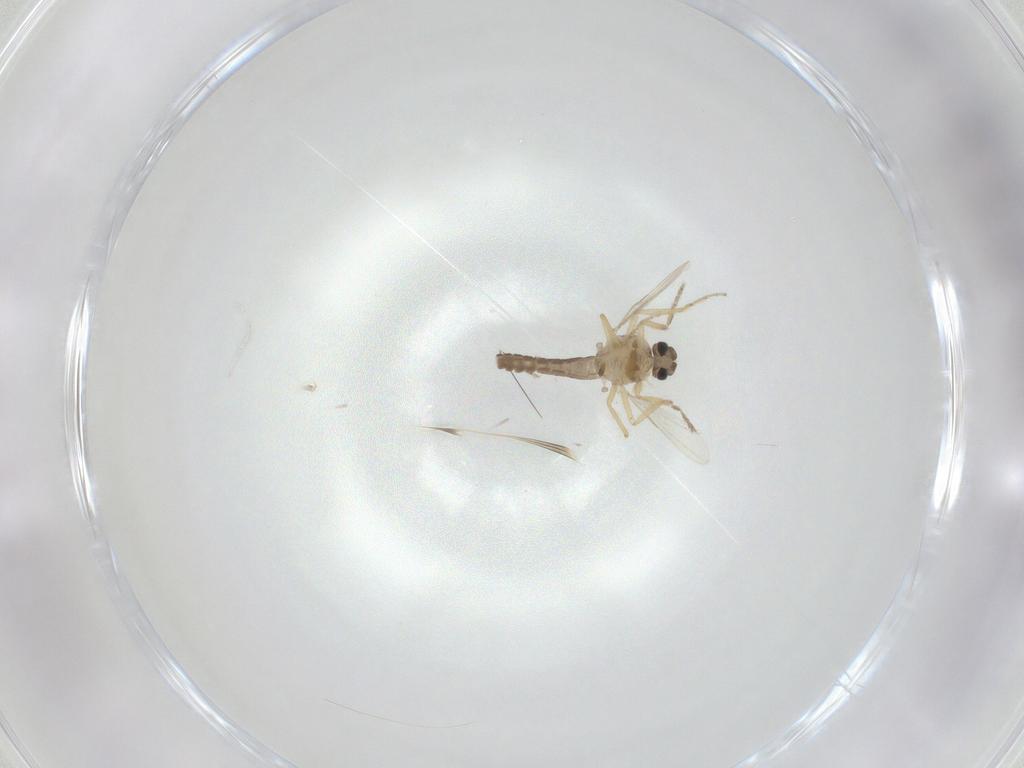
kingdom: Animalia
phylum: Arthropoda
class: Insecta
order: Diptera
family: Ceratopogonidae
